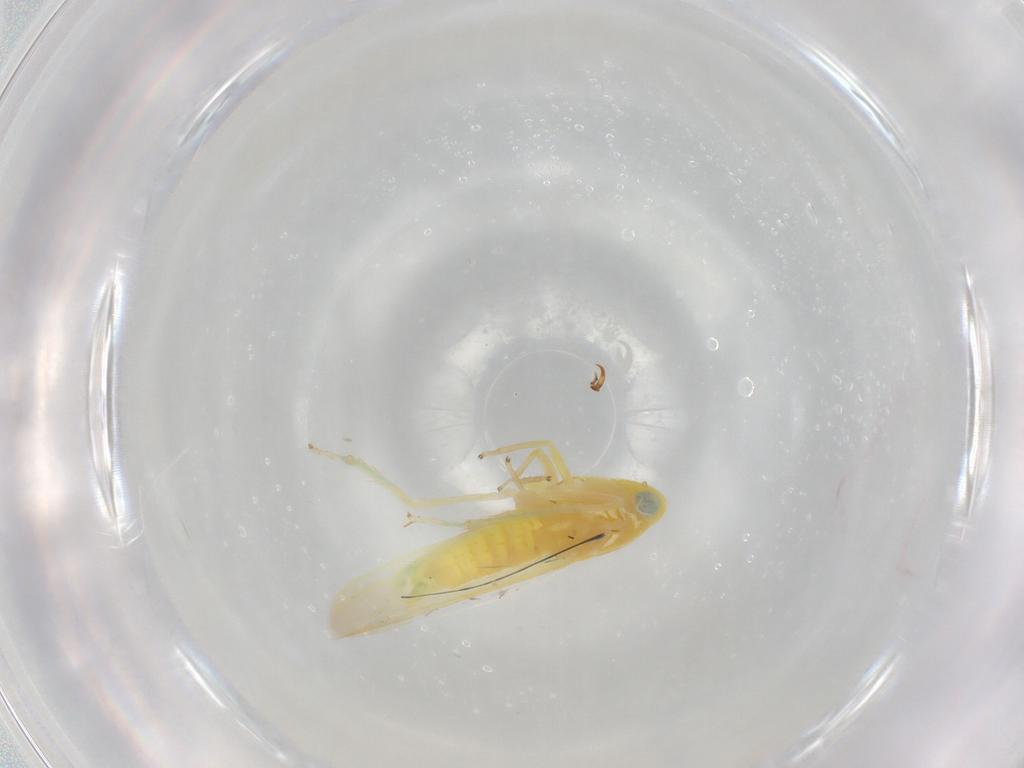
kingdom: Animalia
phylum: Arthropoda
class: Insecta
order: Hemiptera
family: Cicadellidae
